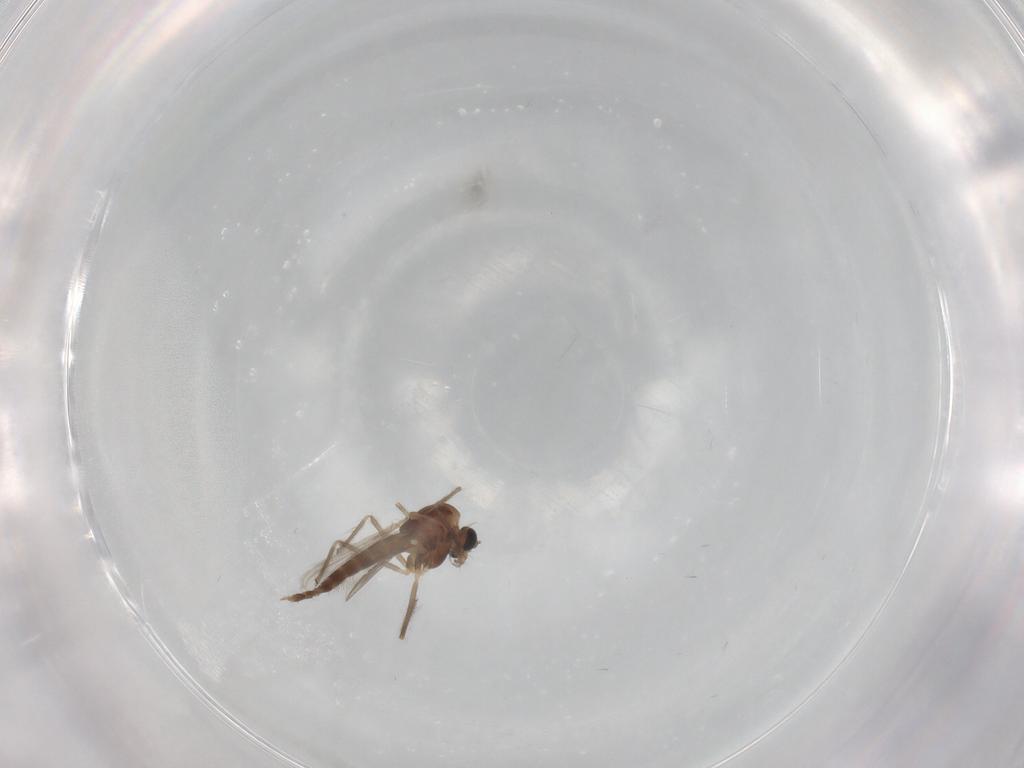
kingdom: Animalia
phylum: Arthropoda
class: Insecta
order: Diptera
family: Chironomidae
